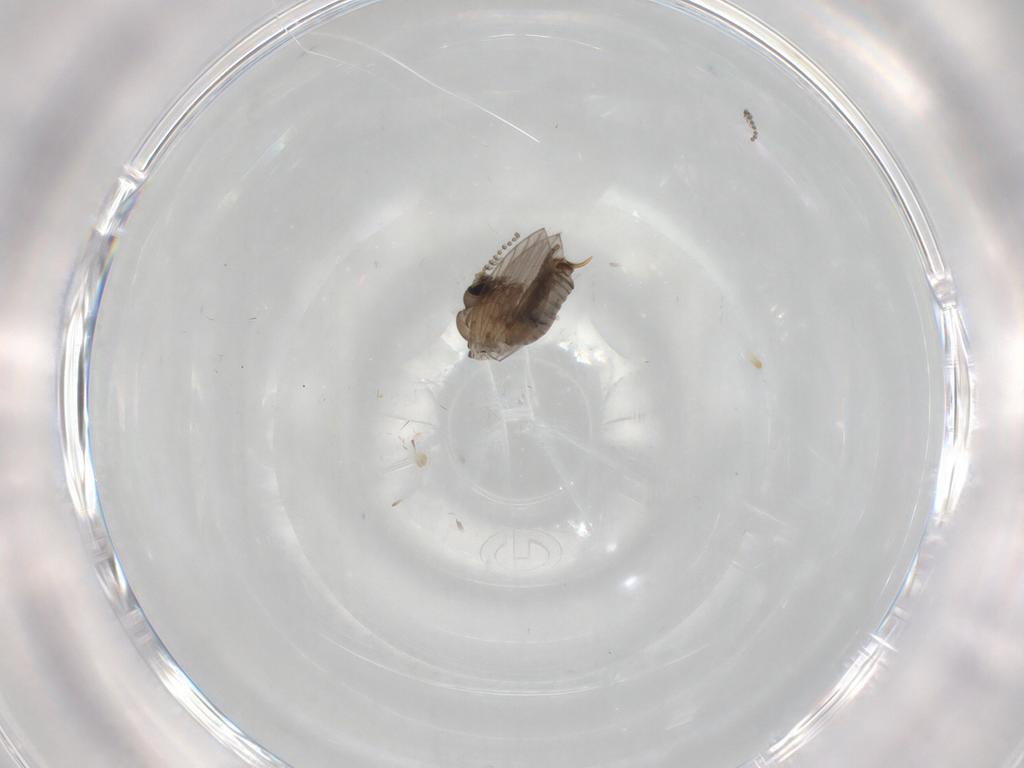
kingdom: Animalia
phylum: Arthropoda
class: Insecta
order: Diptera
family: Psychodidae
